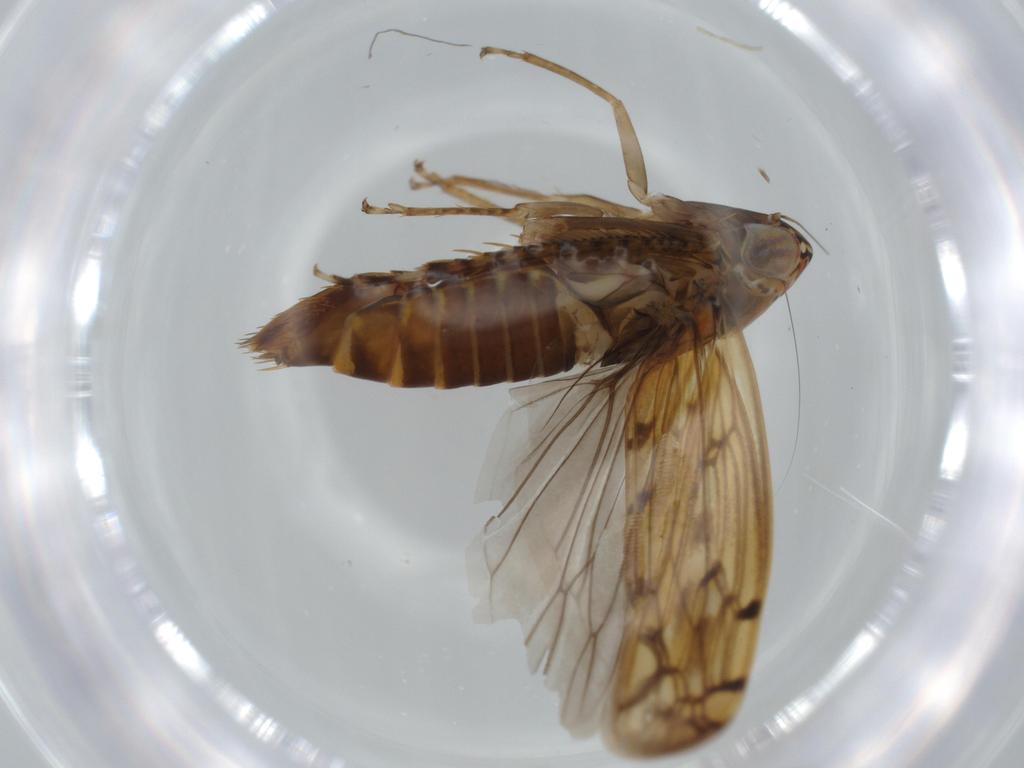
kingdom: Animalia
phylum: Arthropoda
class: Insecta
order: Hemiptera
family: Cicadellidae
